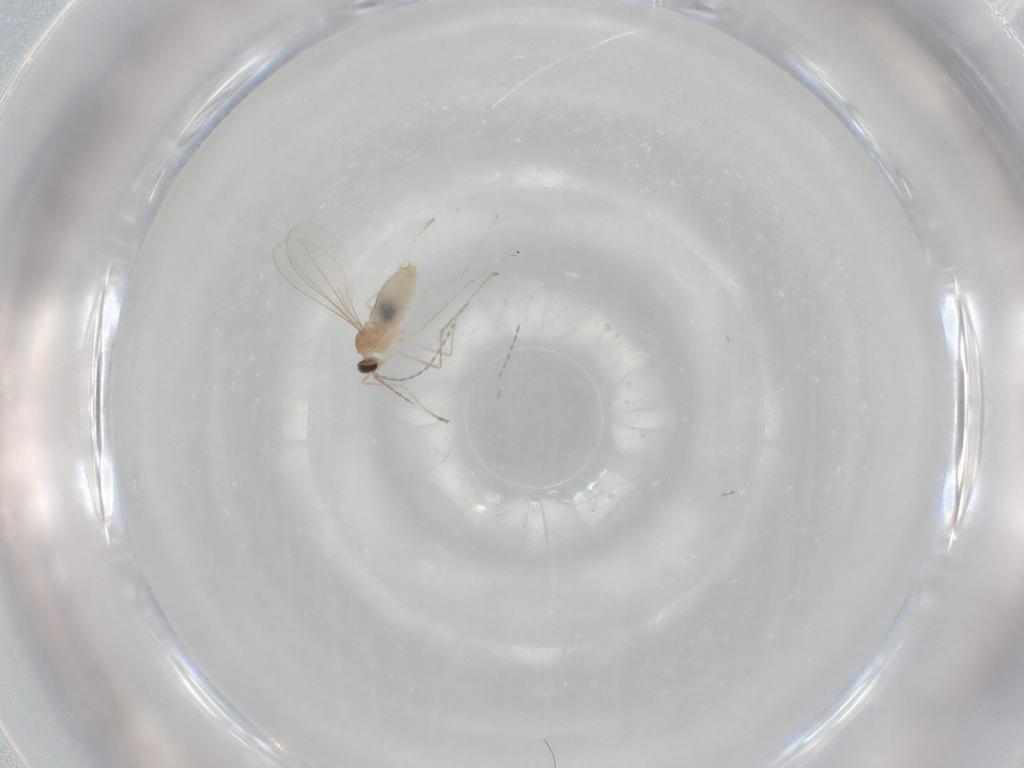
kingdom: Animalia
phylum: Arthropoda
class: Insecta
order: Diptera
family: Cecidomyiidae
